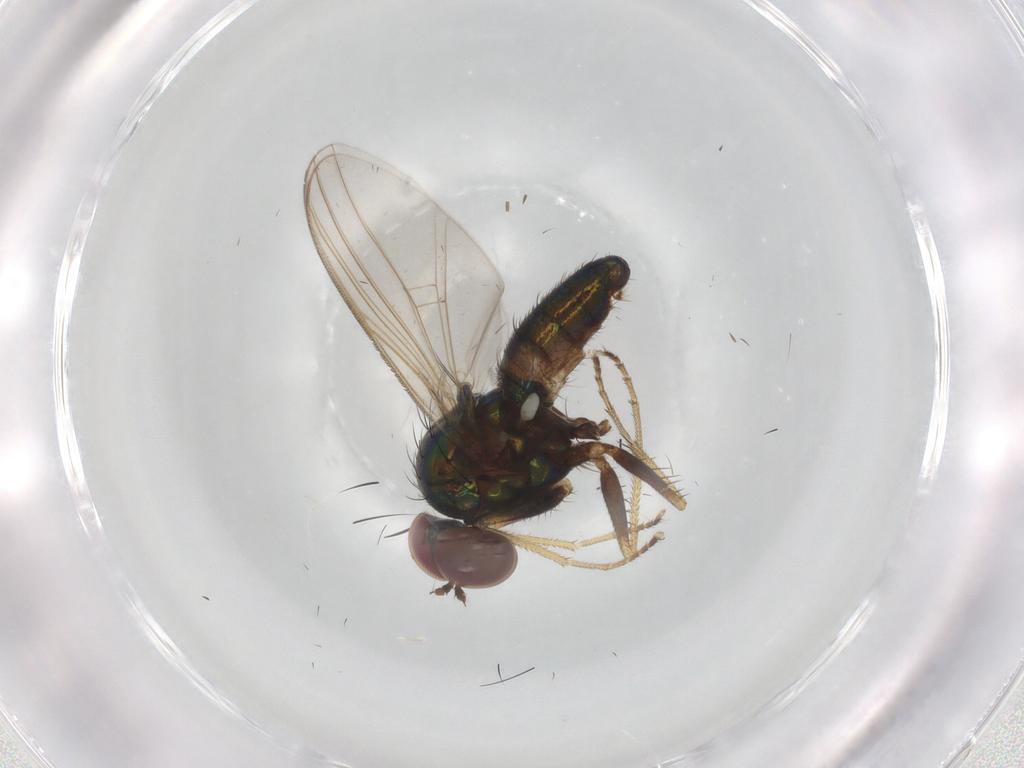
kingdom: Animalia
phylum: Arthropoda
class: Insecta
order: Diptera
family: Dolichopodidae
